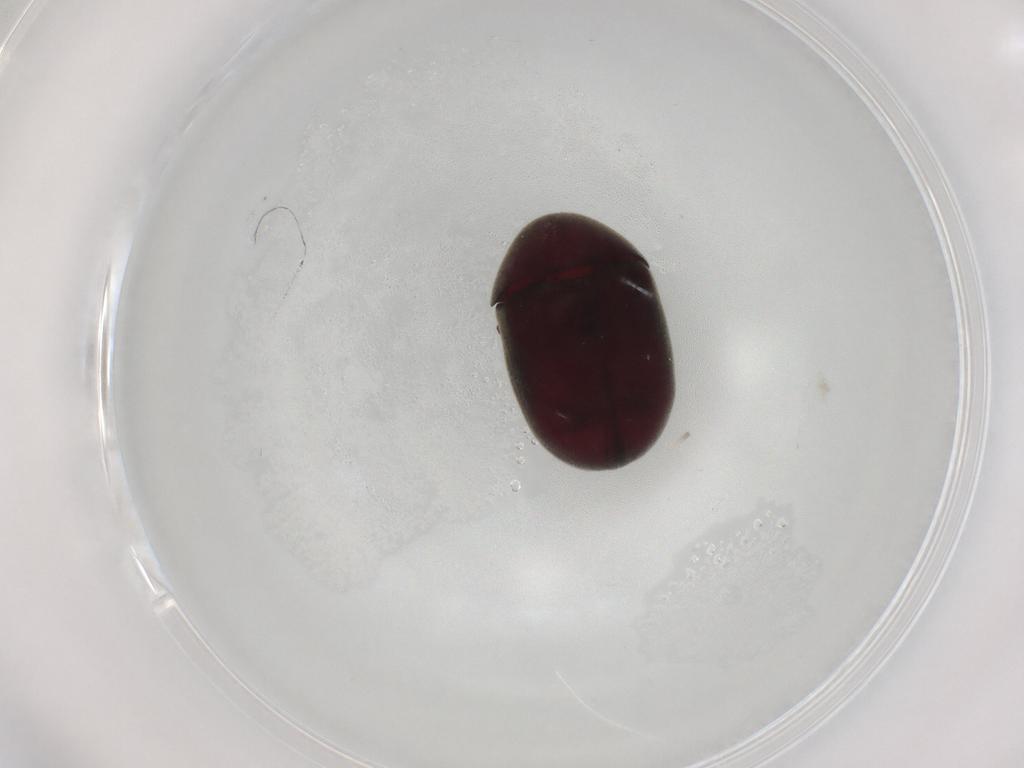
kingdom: Animalia
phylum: Arthropoda
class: Insecta
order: Coleoptera
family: Ptinidae
